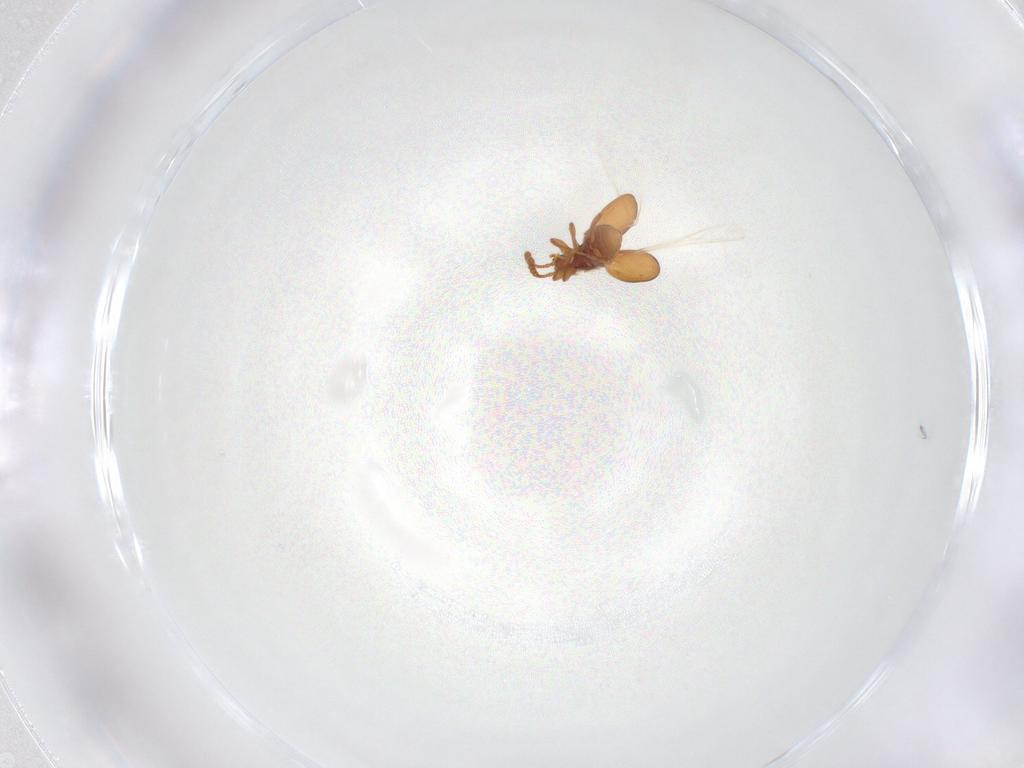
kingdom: Animalia
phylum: Arthropoda
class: Insecta
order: Coleoptera
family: Staphylinidae
